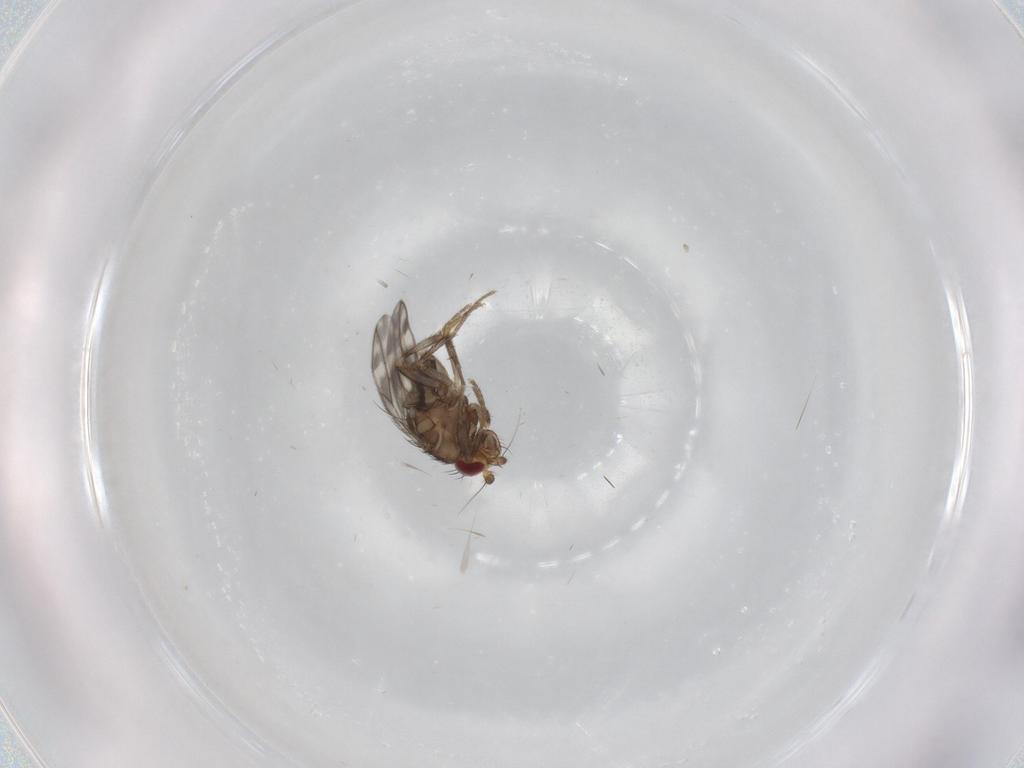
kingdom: Animalia
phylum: Arthropoda
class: Insecta
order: Diptera
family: Sphaeroceridae
